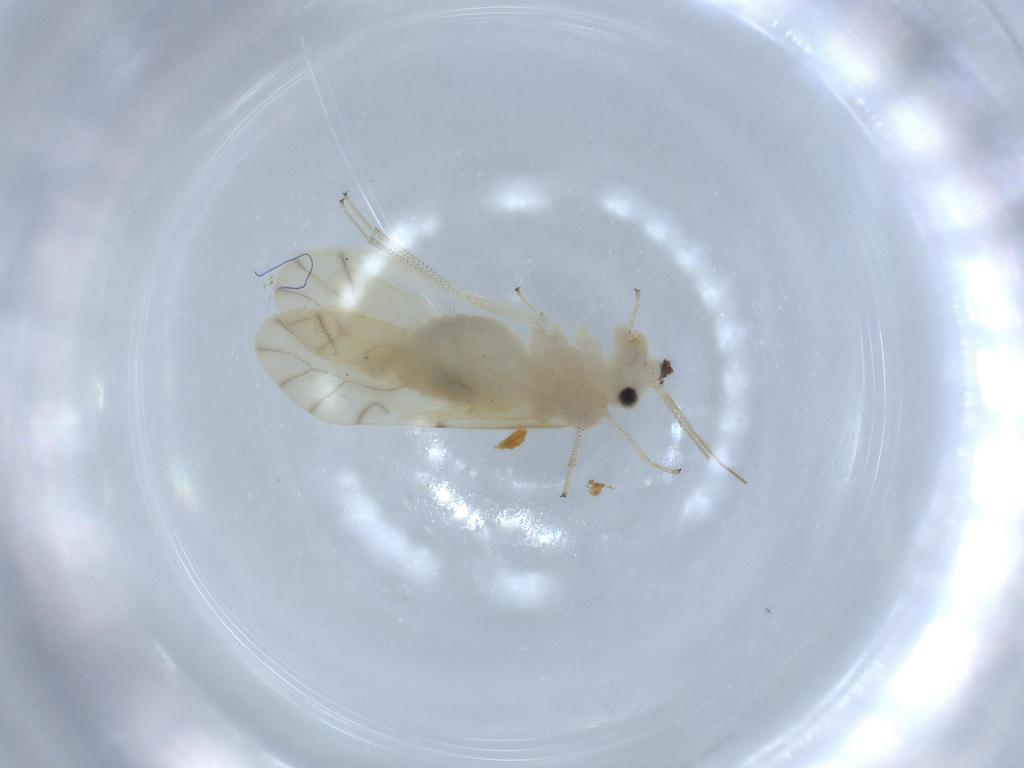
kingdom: Animalia
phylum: Arthropoda
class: Insecta
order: Psocodea
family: Caeciliusidae
